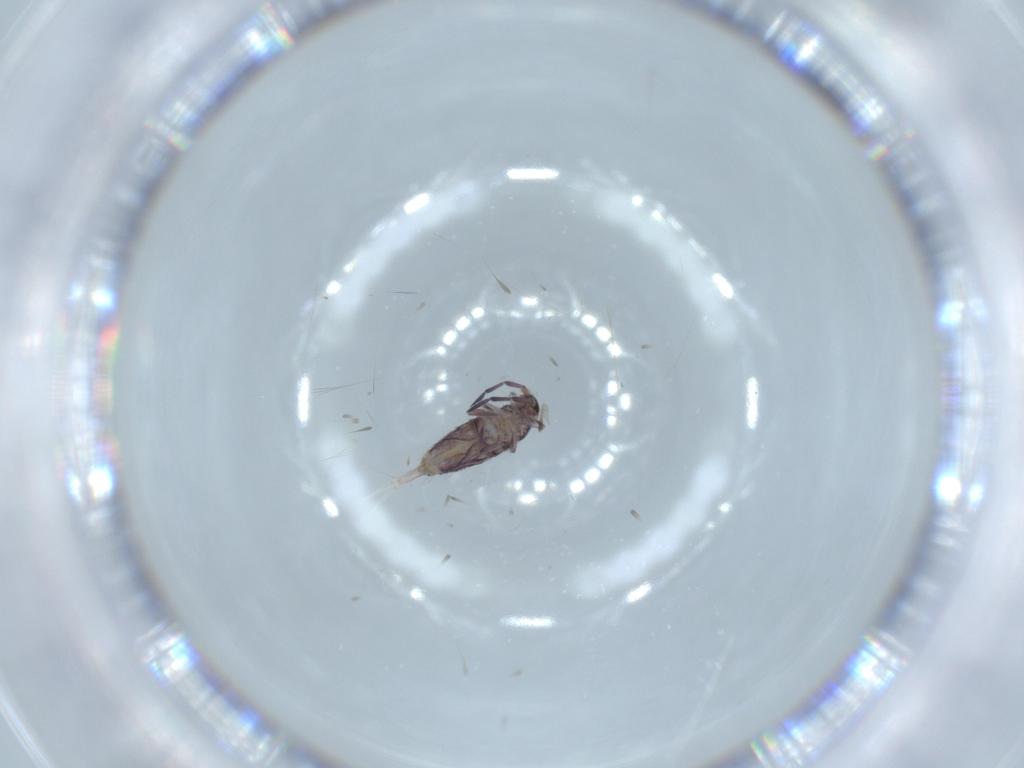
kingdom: Animalia
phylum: Arthropoda
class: Collembola
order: Entomobryomorpha
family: Entomobryidae
